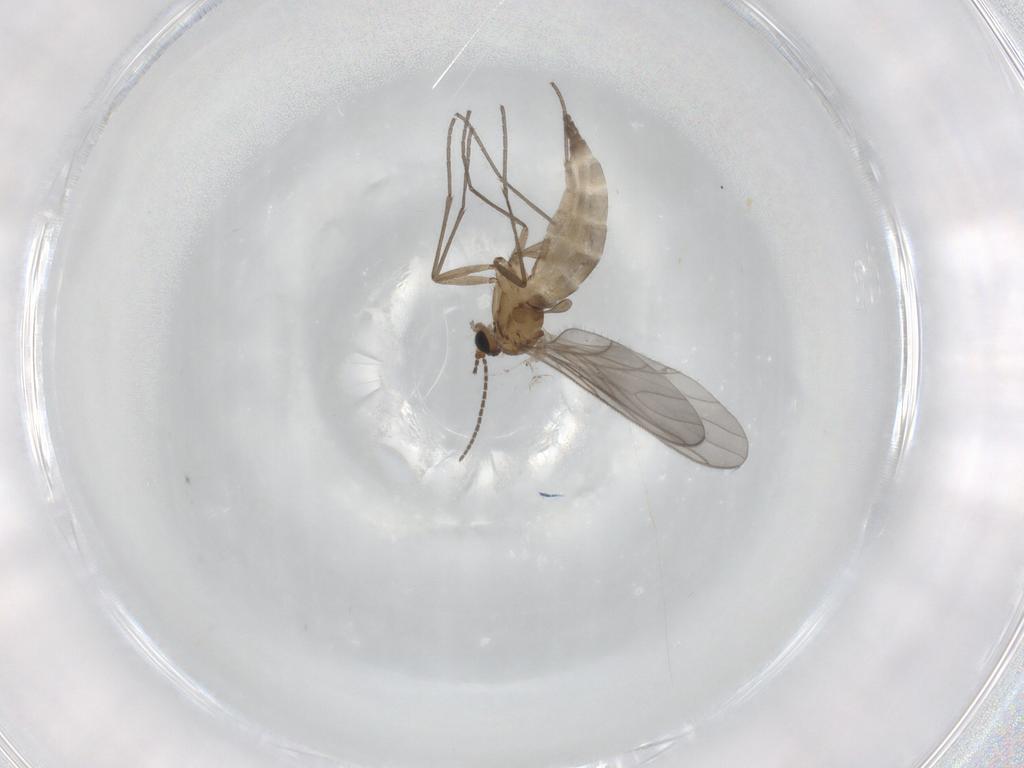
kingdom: Animalia
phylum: Arthropoda
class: Insecta
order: Diptera
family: Sciaridae
